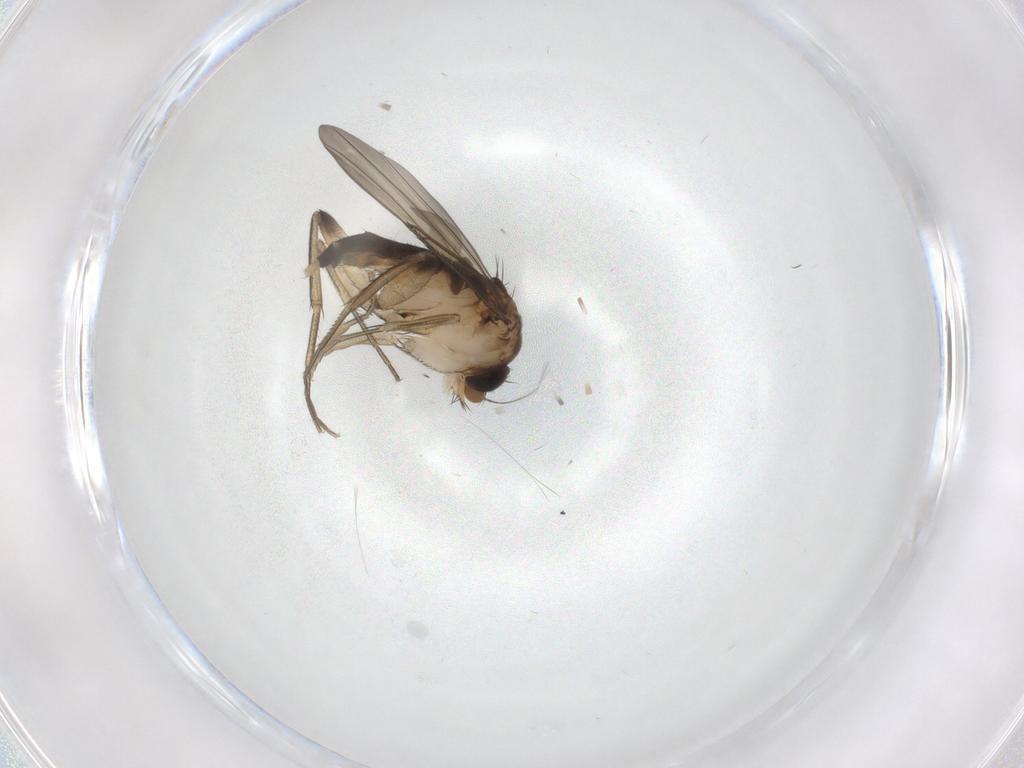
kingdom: Animalia
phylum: Arthropoda
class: Insecta
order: Diptera
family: Phoridae
